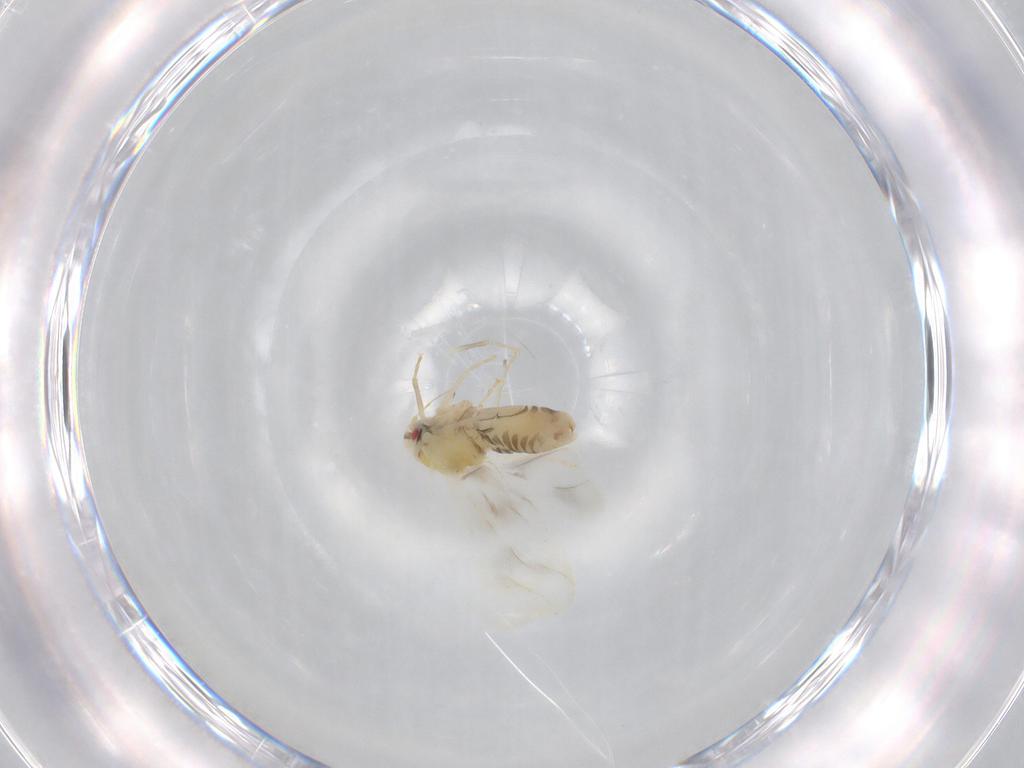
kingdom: Animalia
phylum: Arthropoda
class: Insecta
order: Hemiptera
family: Aleyrodidae
